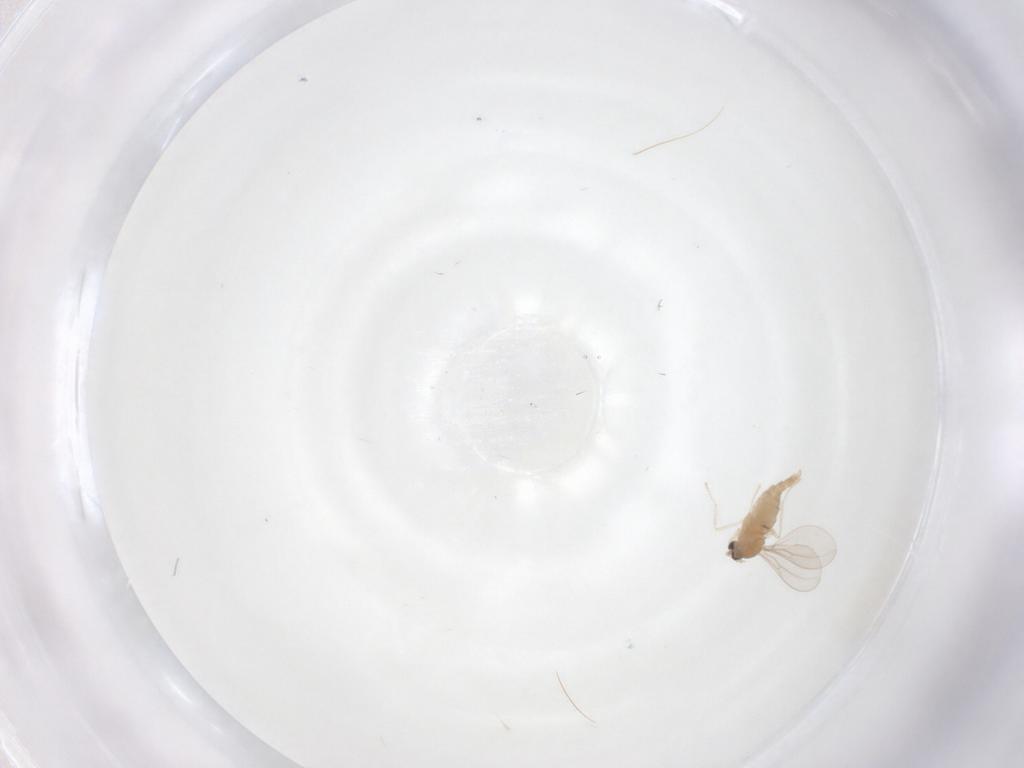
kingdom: Animalia
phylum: Arthropoda
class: Insecta
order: Diptera
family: Cecidomyiidae
